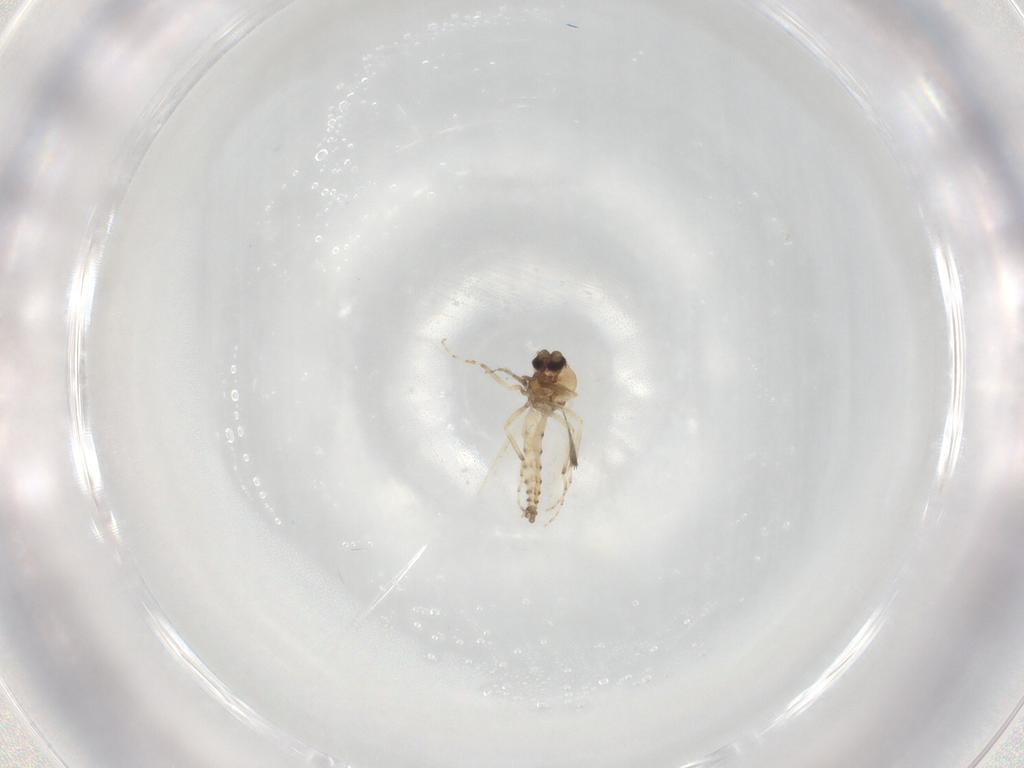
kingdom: Animalia
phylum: Arthropoda
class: Insecta
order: Diptera
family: Ceratopogonidae
